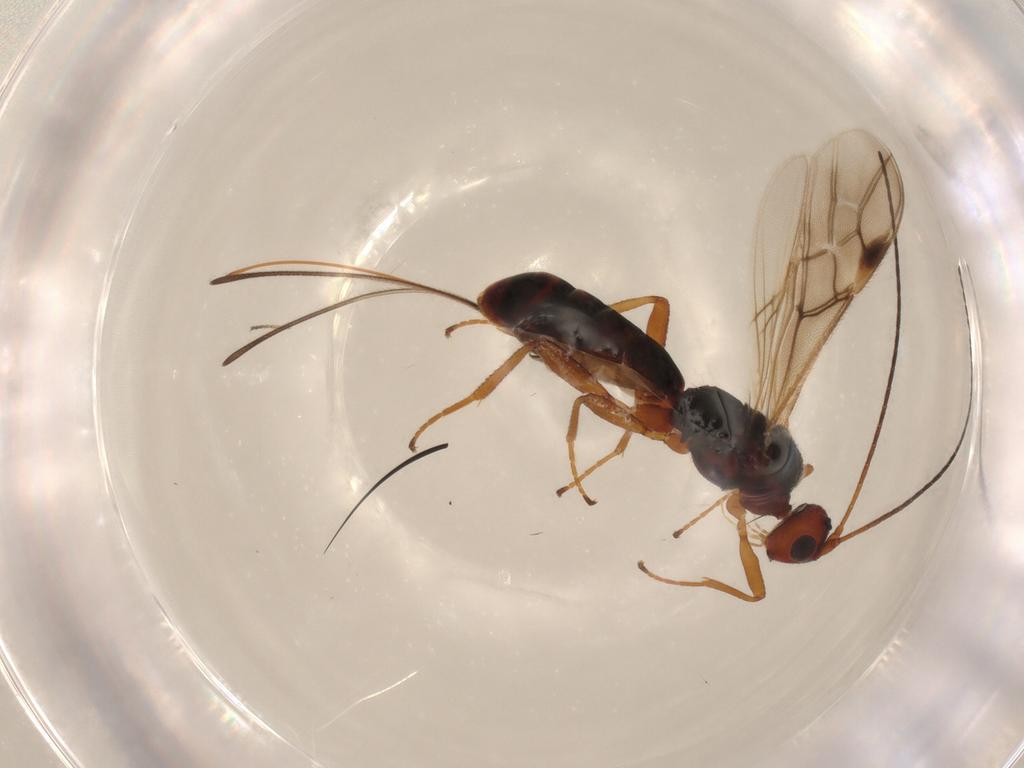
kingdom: Animalia
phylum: Arthropoda
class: Insecta
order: Hymenoptera
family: Braconidae
